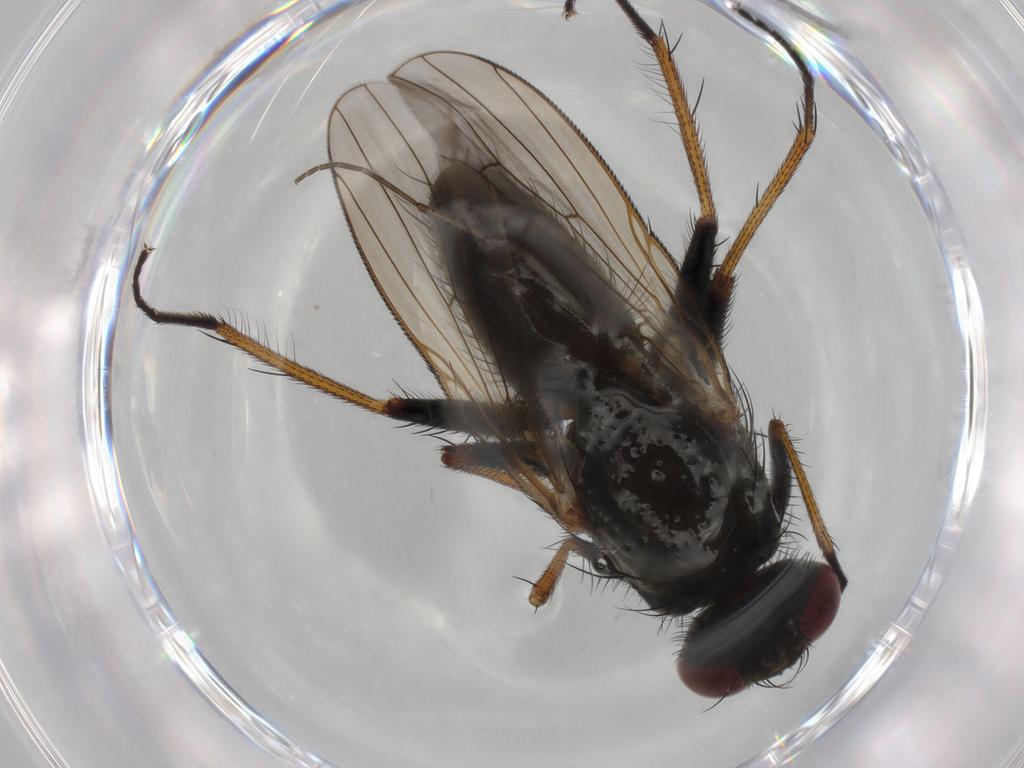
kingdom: Animalia
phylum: Arthropoda
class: Insecta
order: Diptera
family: Muscidae
